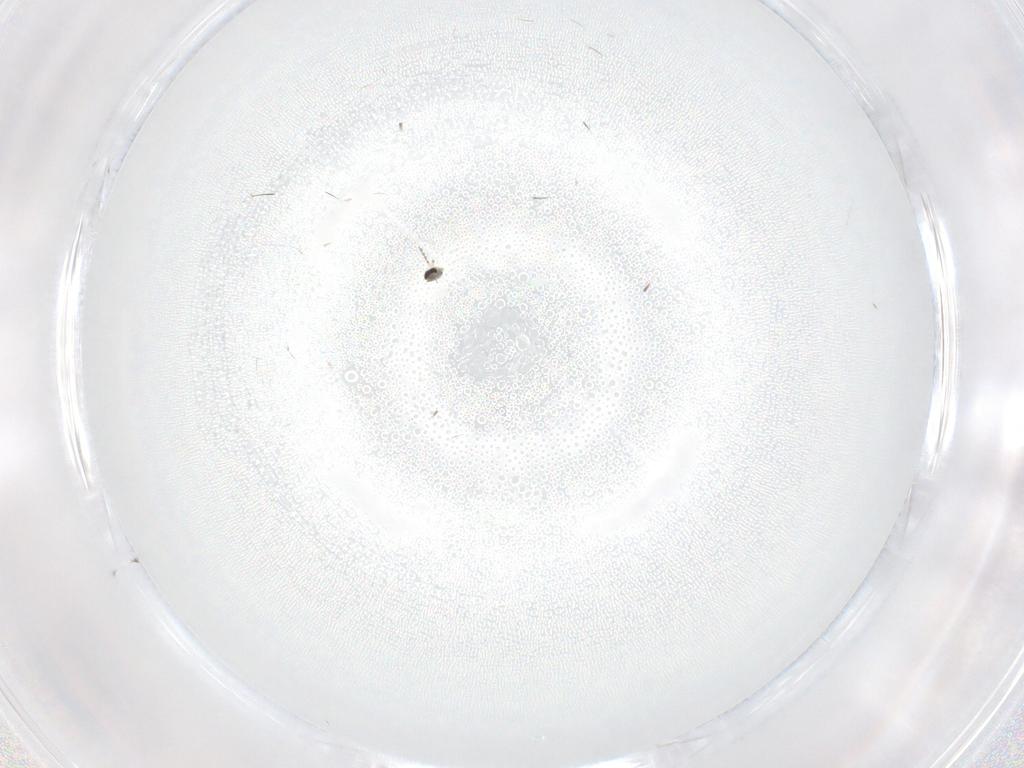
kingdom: Animalia
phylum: Arthropoda
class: Insecta
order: Diptera
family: Cecidomyiidae
